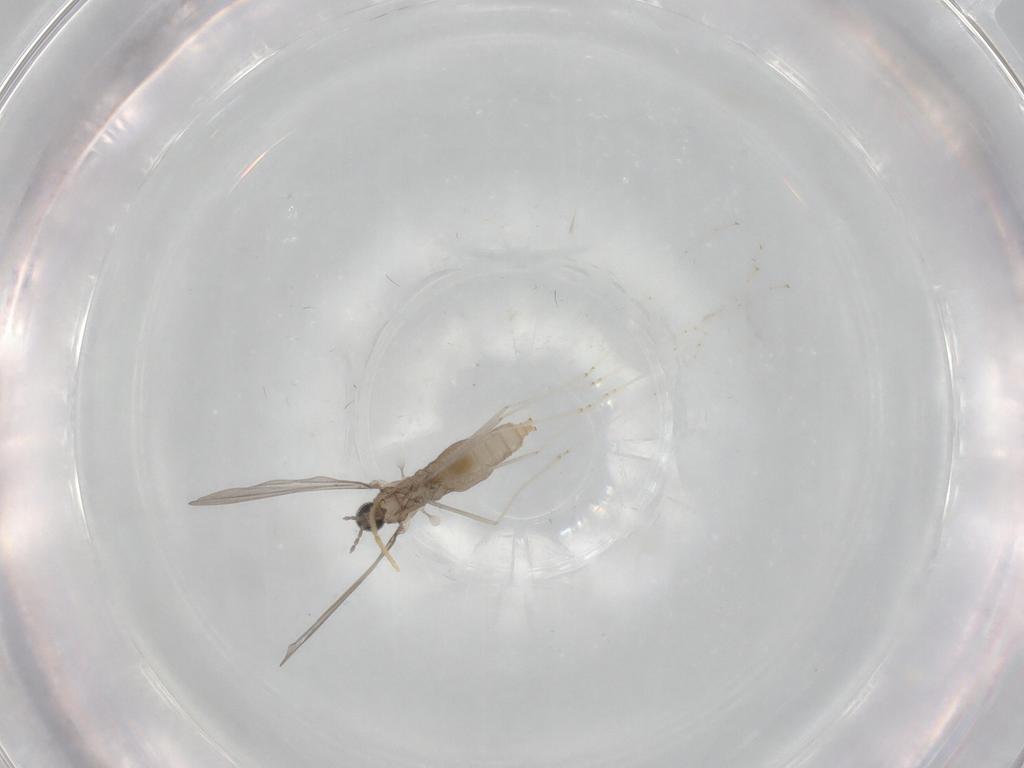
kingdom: Animalia
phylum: Arthropoda
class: Insecta
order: Diptera
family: Cecidomyiidae
